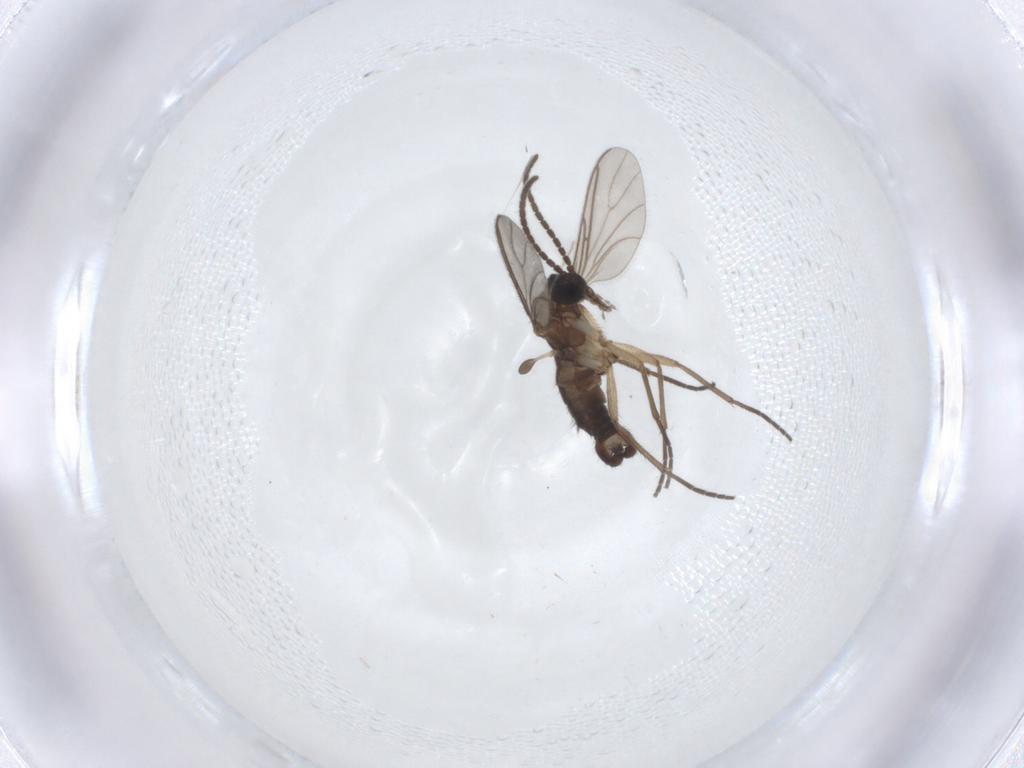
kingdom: Animalia
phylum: Arthropoda
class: Insecta
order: Diptera
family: Sciaridae
